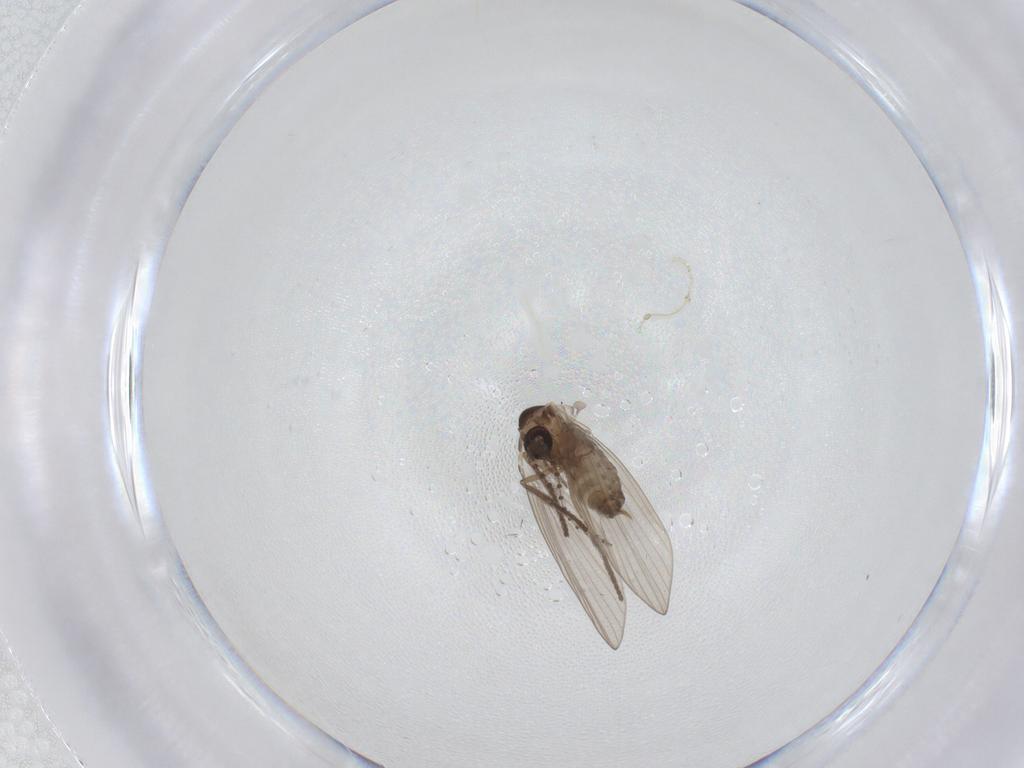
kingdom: Animalia
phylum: Arthropoda
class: Insecta
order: Diptera
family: Psychodidae
